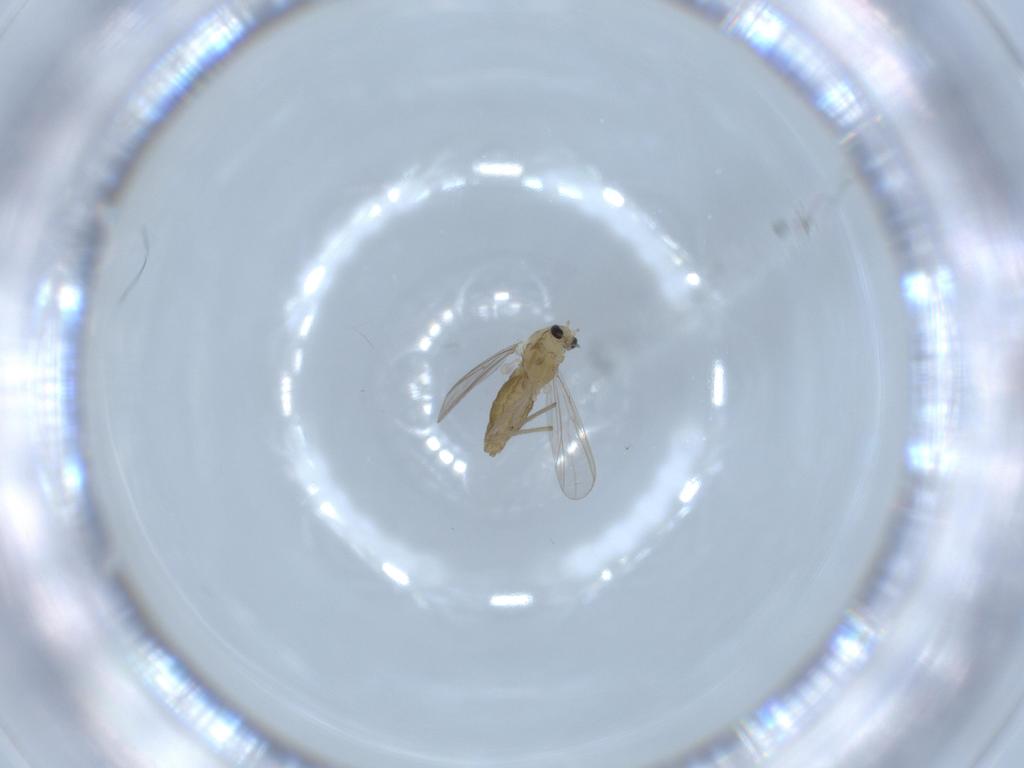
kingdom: Animalia
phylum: Arthropoda
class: Insecta
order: Diptera
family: Chironomidae
